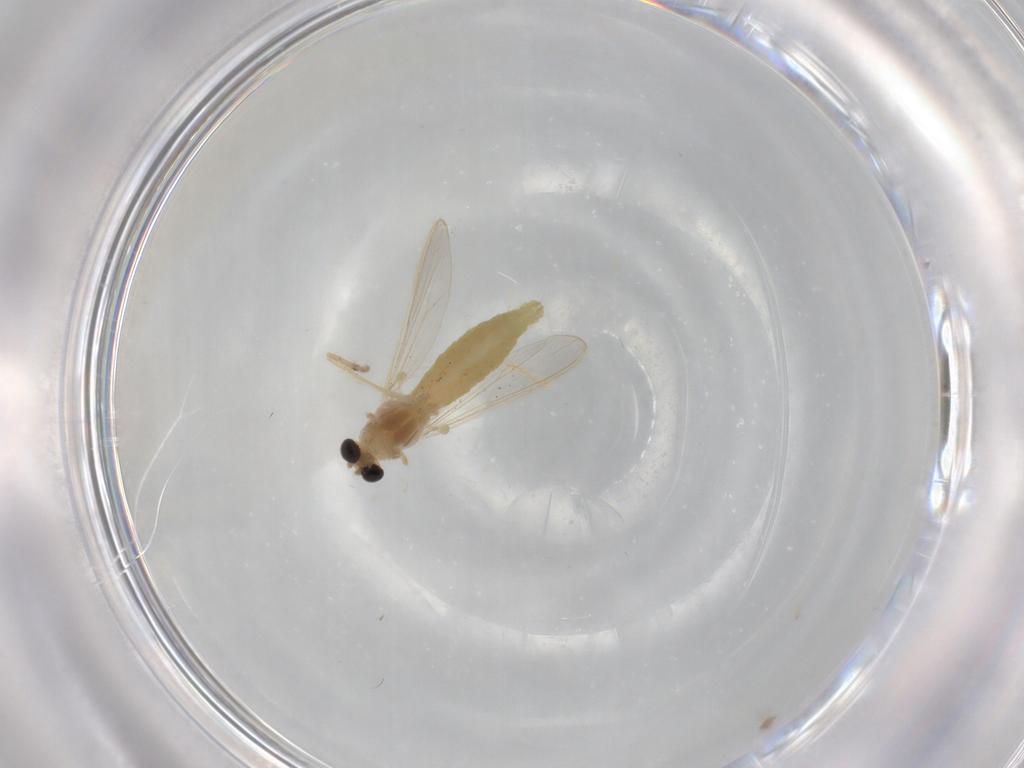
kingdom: Animalia
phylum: Arthropoda
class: Insecta
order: Diptera
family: Chironomidae
